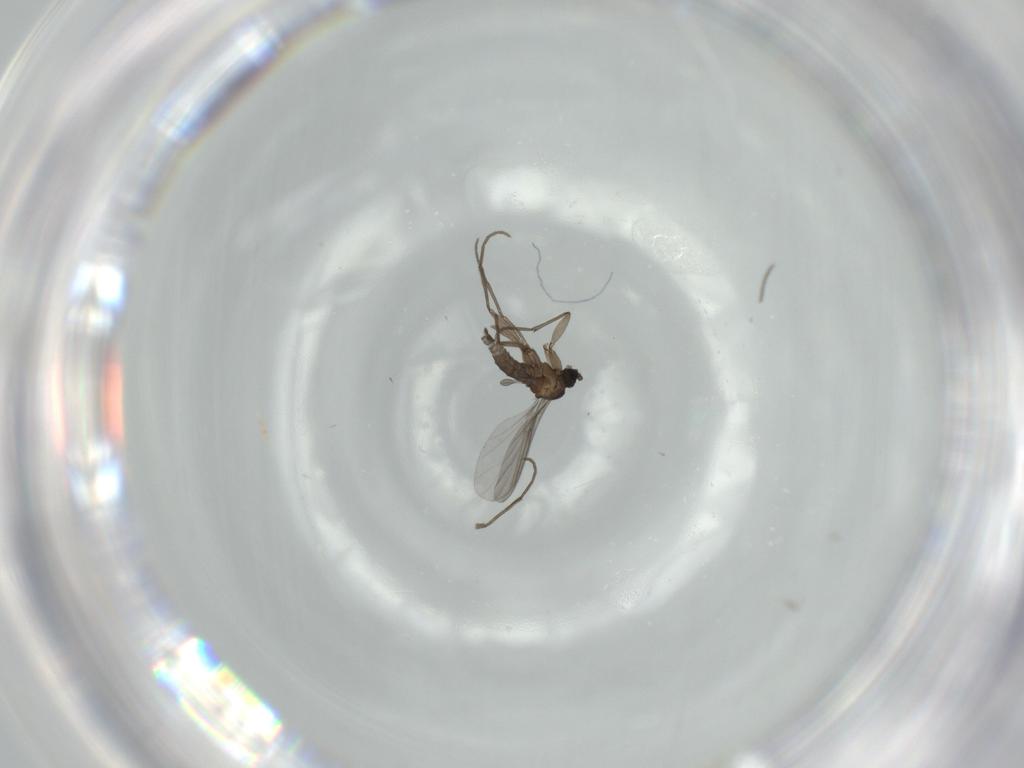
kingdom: Animalia
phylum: Arthropoda
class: Insecta
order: Diptera
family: Sciaridae
